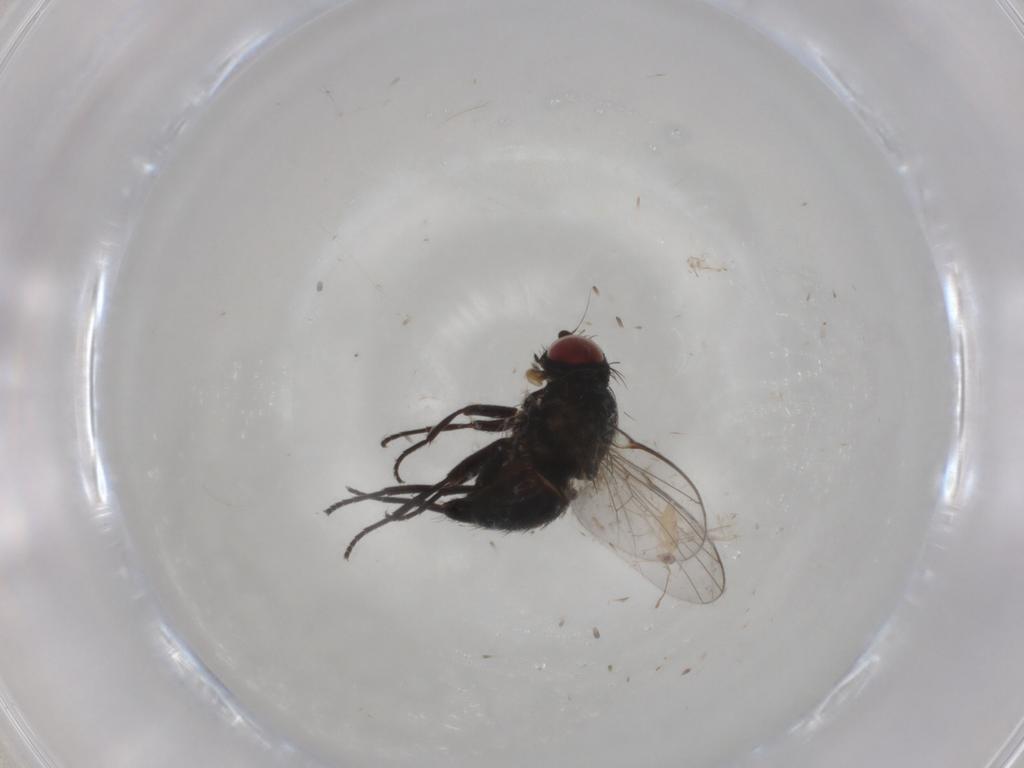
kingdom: Animalia
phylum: Arthropoda
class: Insecta
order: Diptera
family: Agromyzidae
